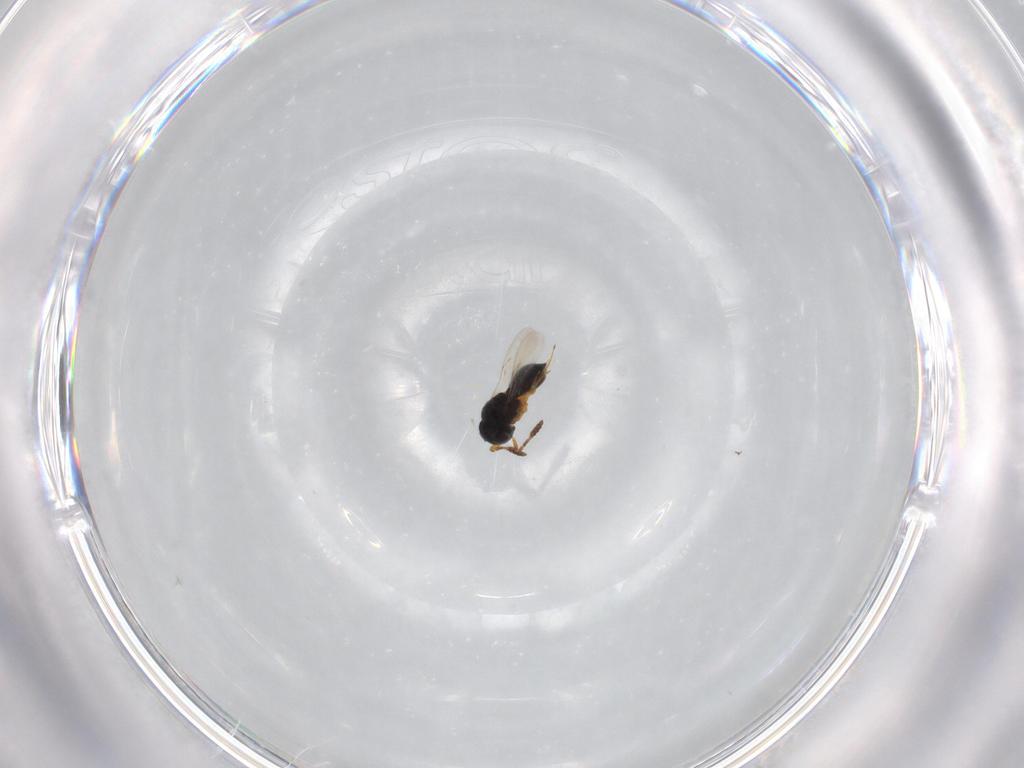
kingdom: Animalia
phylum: Arthropoda
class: Insecta
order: Hymenoptera
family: Scelionidae
